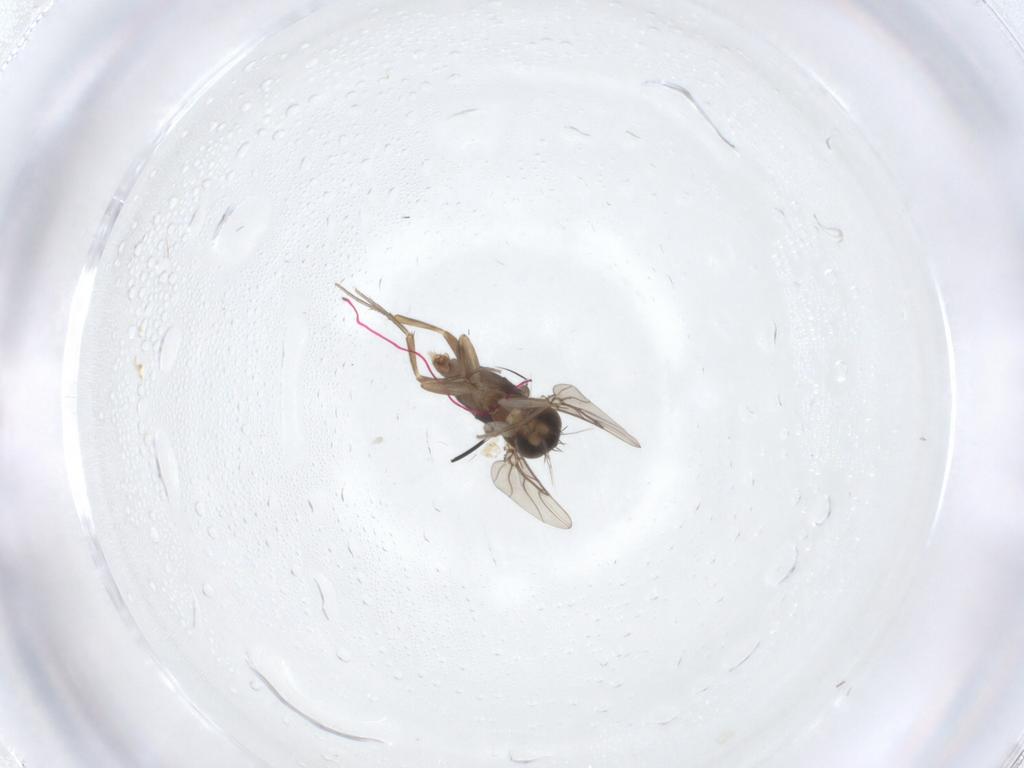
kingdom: Animalia
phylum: Arthropoda
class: Insecta
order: Diptera
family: Phoridae
